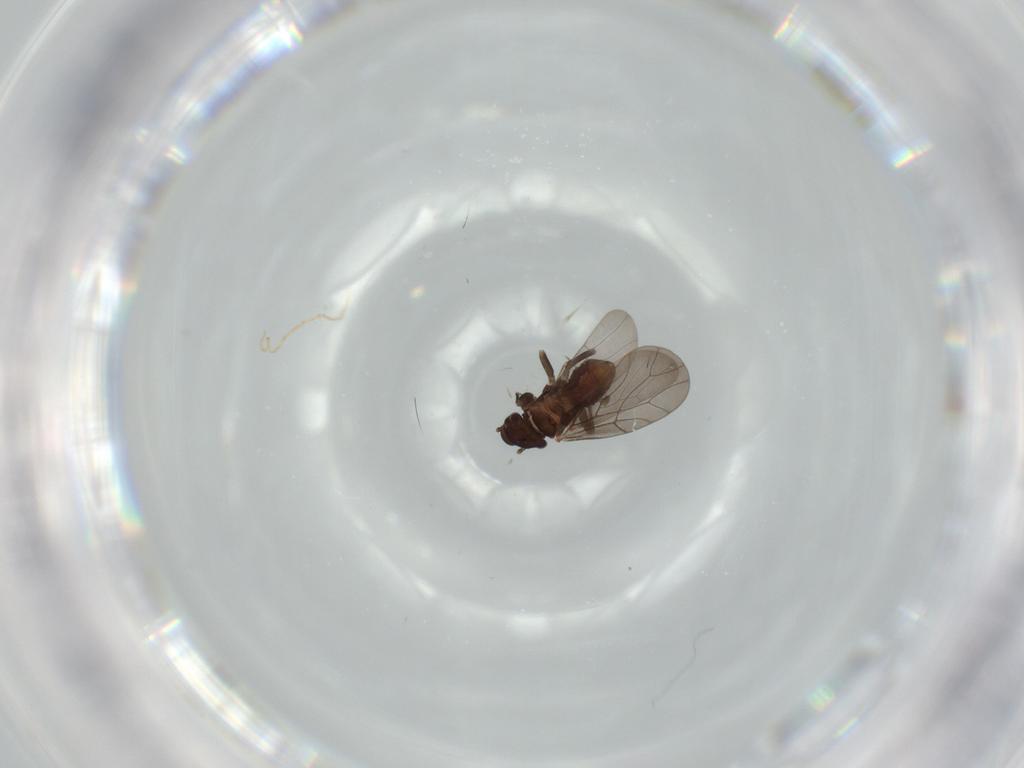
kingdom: Animalia
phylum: Arthropoda
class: Insecta
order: Psocodea
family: Lepidopsocidae
